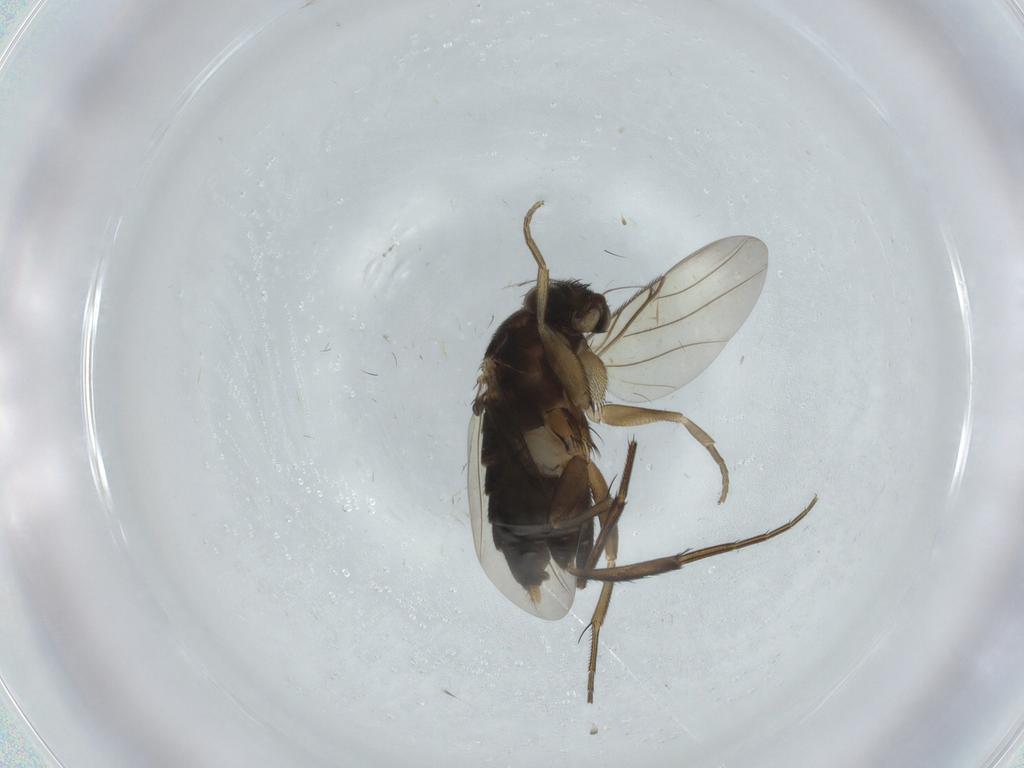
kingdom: Animalia
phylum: Arthropoda
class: Insecta
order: Diptera
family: Phoridae
